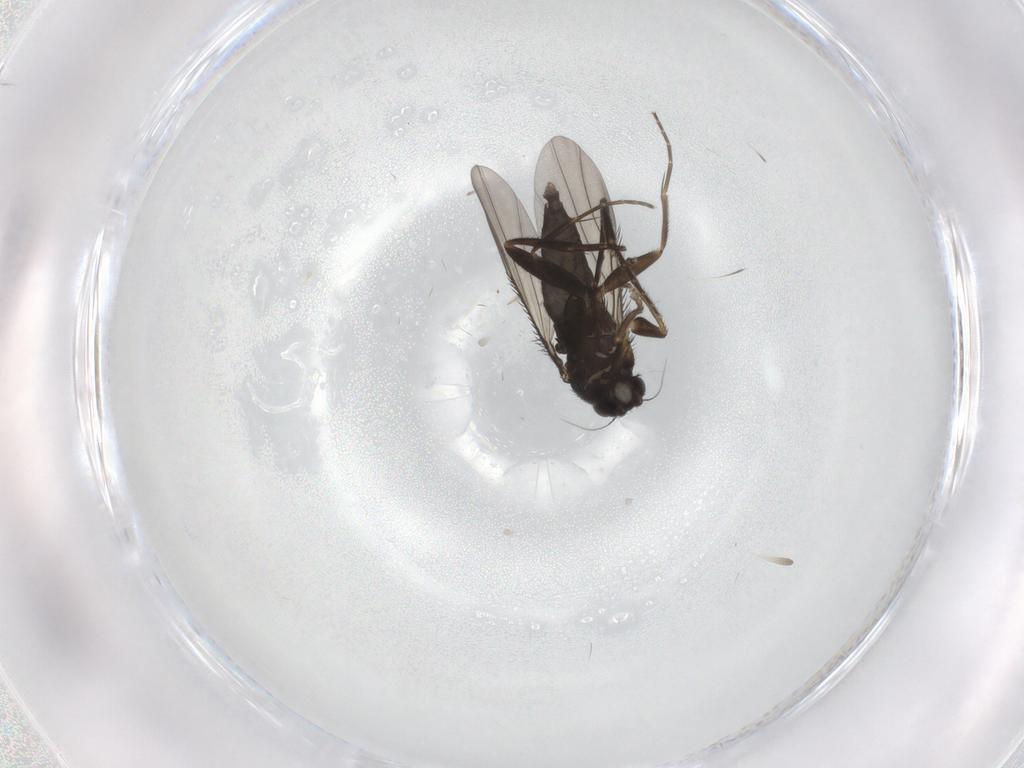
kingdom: Animalia
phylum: Arthropoda
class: Insecta
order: Diptera
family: Phoridae
